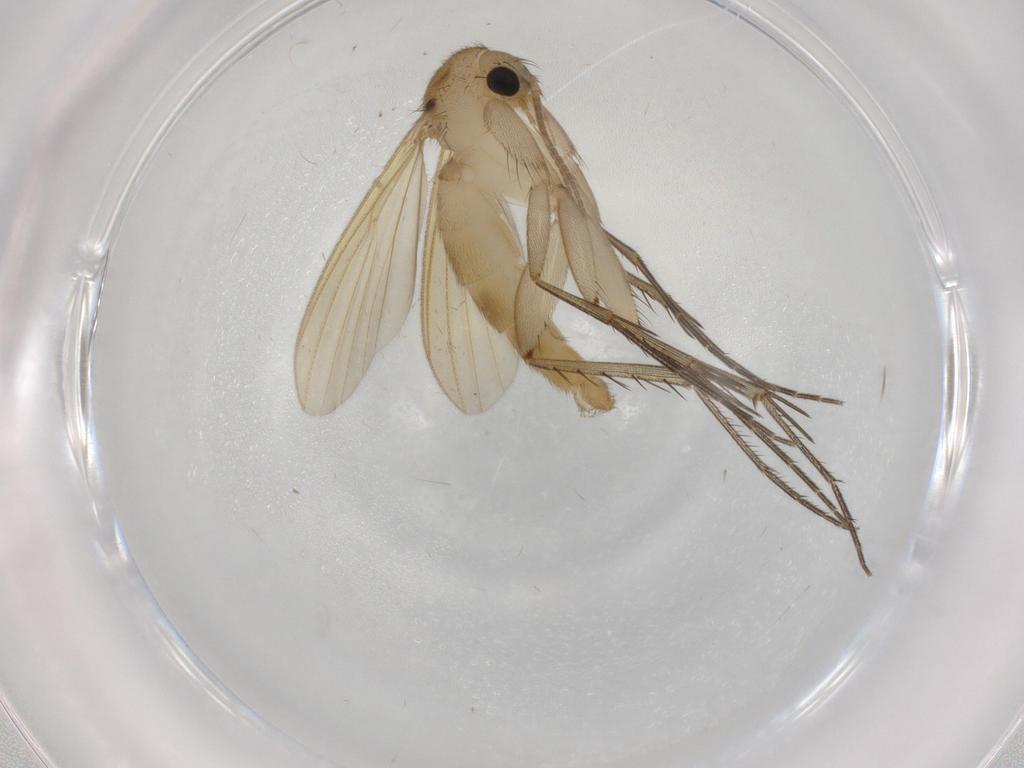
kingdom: Animalia
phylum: Arthropoda
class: Insecta
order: Diptera
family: Mycetophilidae
